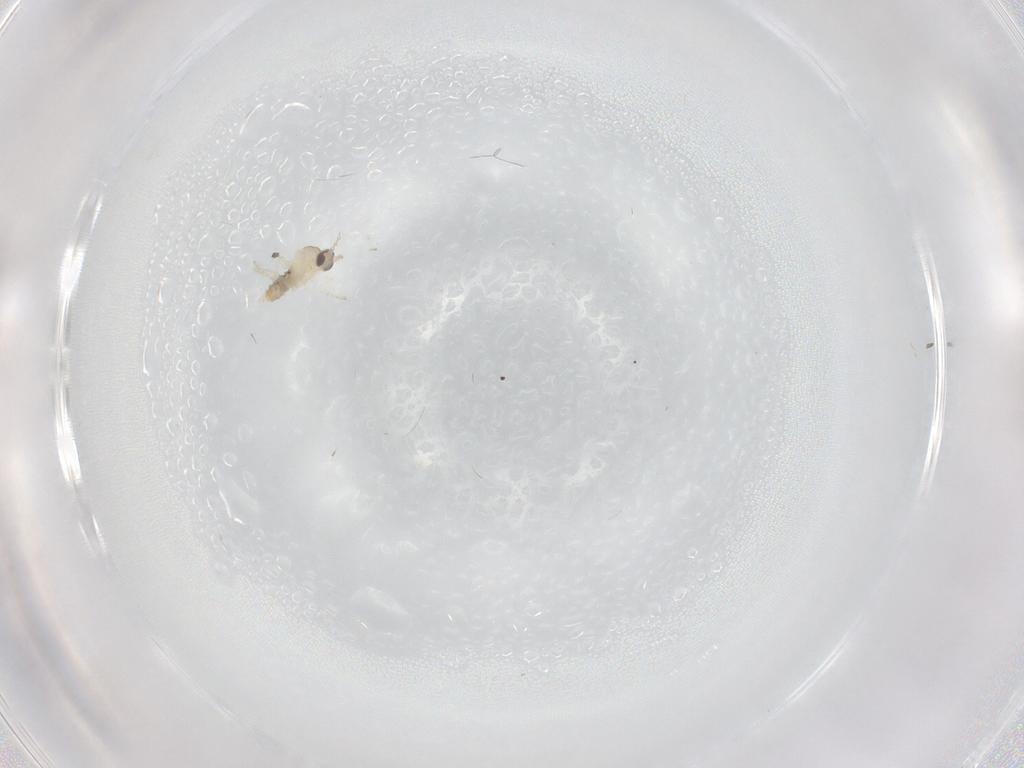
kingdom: Animalia
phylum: Arthropoda
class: Insecta
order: Diptera
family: Cecidomyiidae
